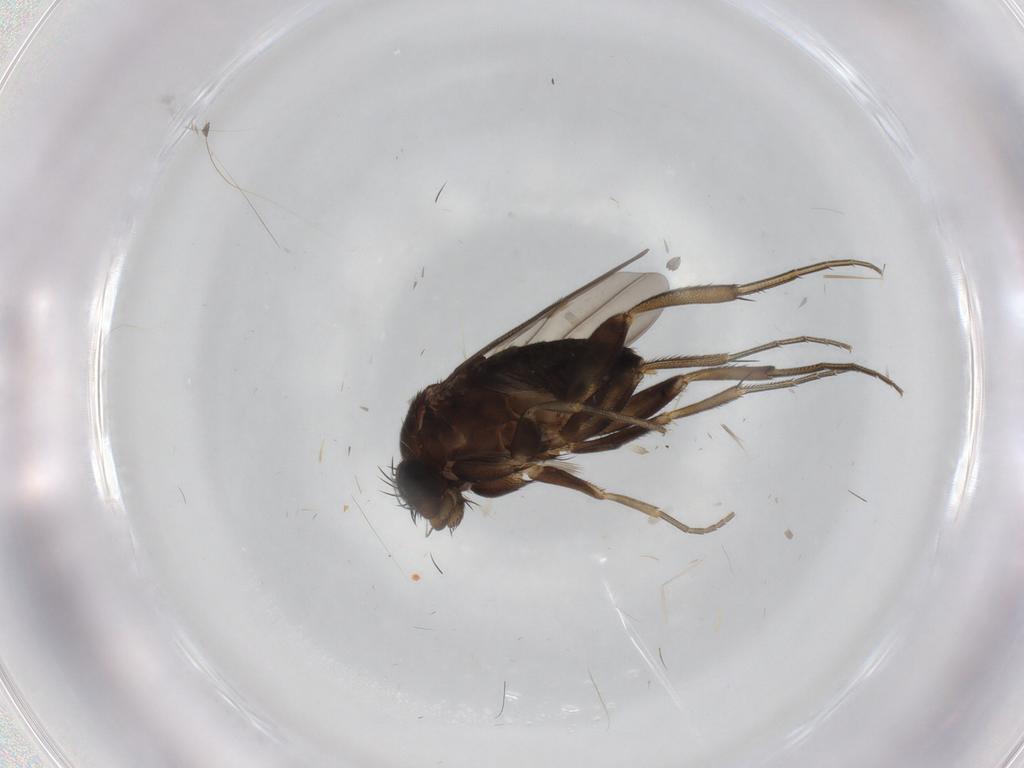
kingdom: Animalia
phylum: Arthropoda
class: Insecta
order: Diptera
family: Phoridae
